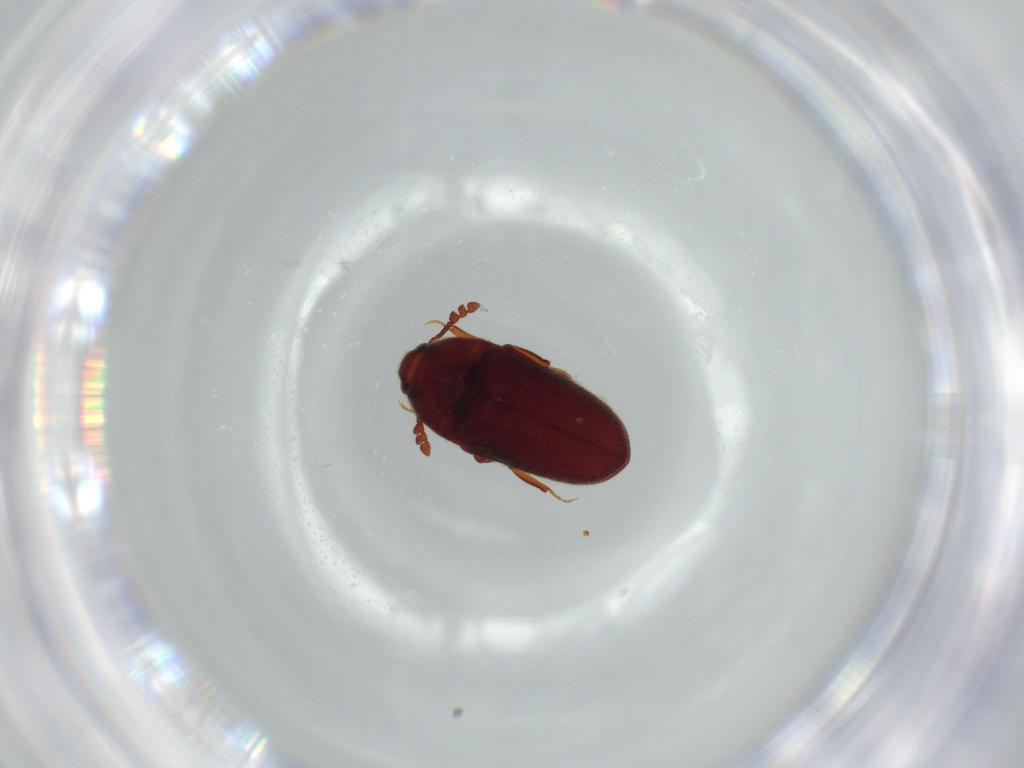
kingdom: Animalia
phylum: Arthropoda
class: Insecta
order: Coleoptera
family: Throscidae
